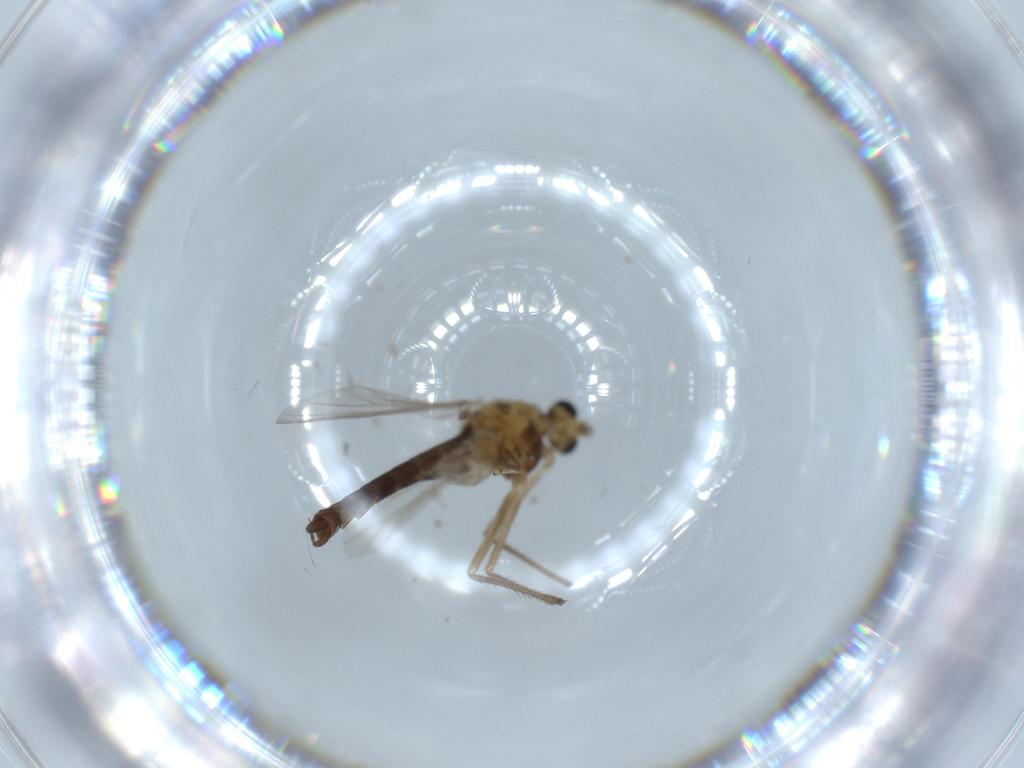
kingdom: Animalia
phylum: Arthropoda
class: Insecta
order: Diptera
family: Chironomidae
